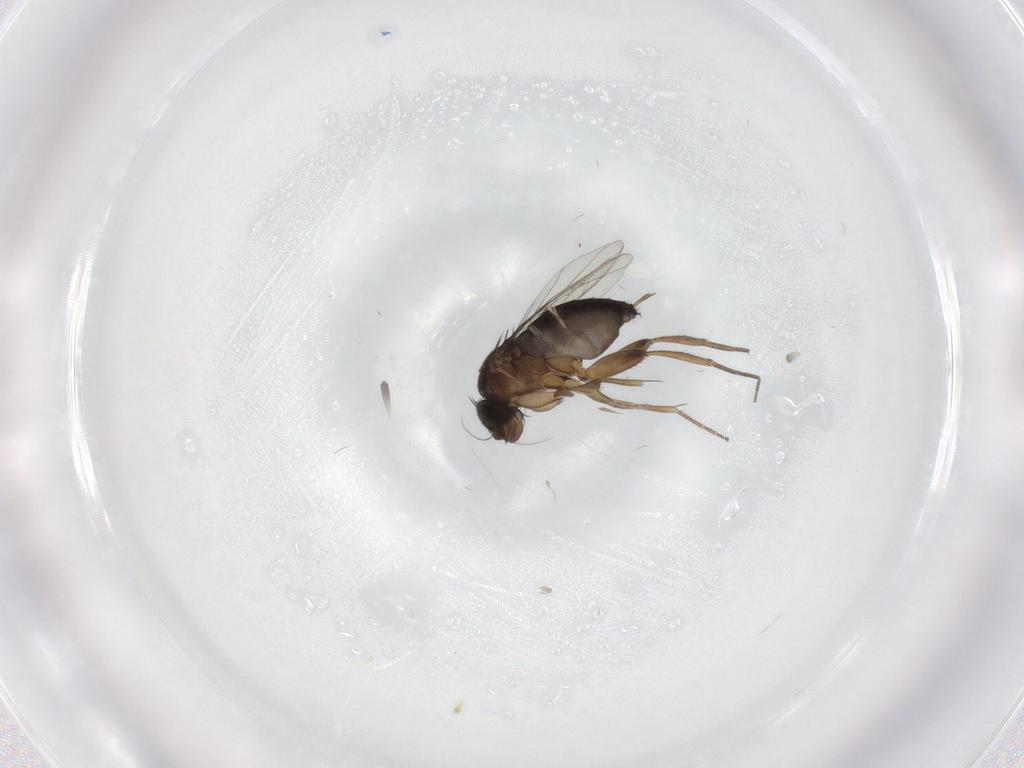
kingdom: Animalia
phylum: Arthropoda
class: Insecta
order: Diptera
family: Phoridae
